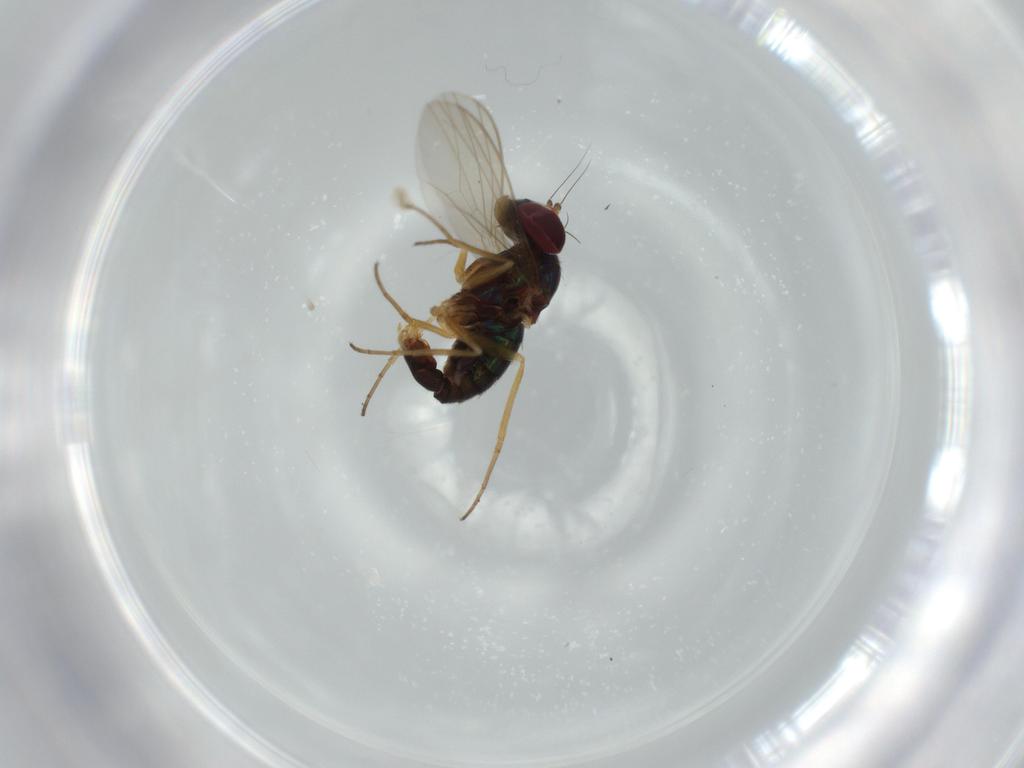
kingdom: Animalia
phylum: Arthropoda
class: Insecta
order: Diptera
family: Dolichopodidae
